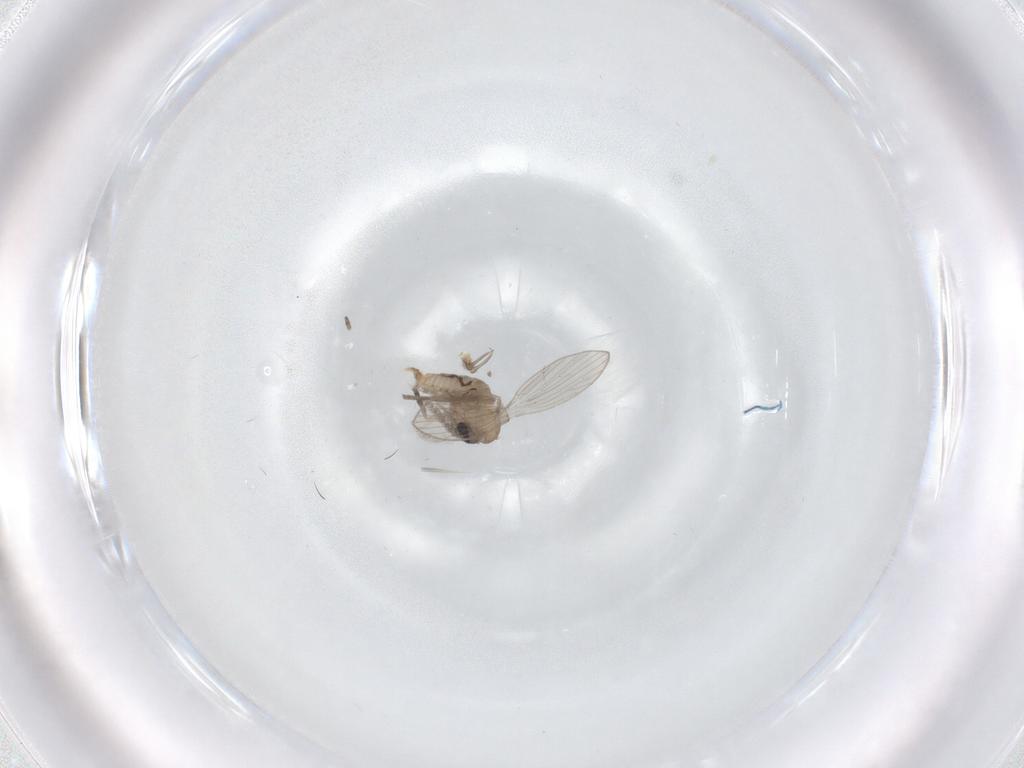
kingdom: Animalia
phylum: Arthropoda
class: Insecta
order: Diptera
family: Psychodidae
